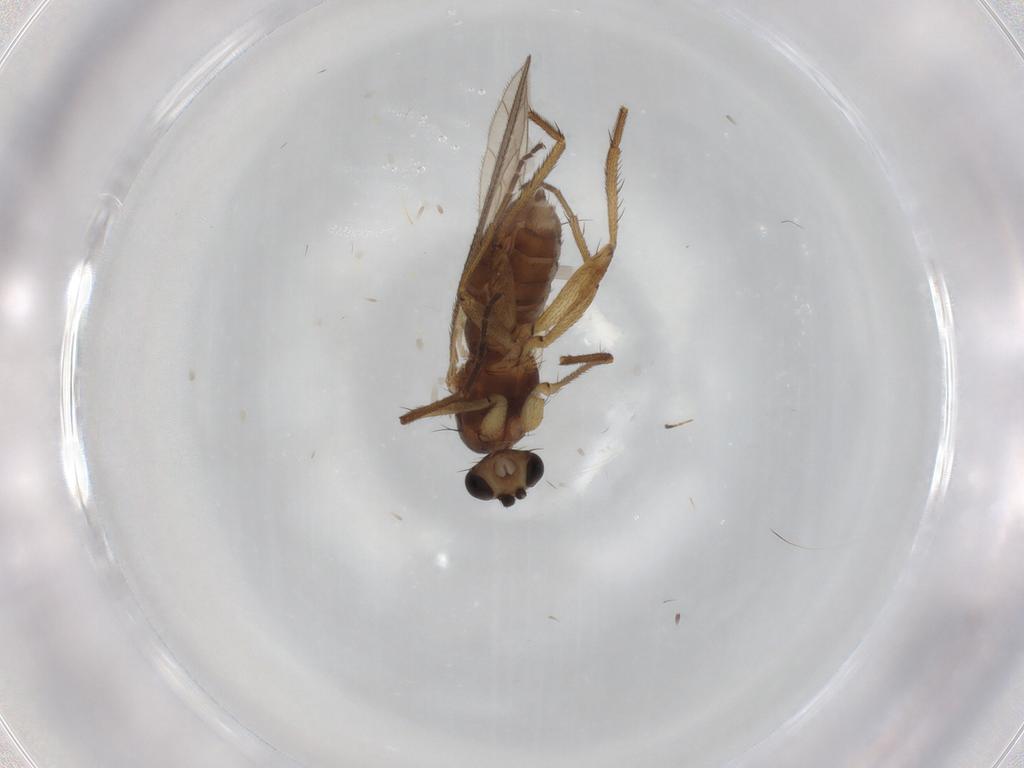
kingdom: Animalia
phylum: Arthropoda
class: Insecta
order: Diptera
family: Lonchopteridae
